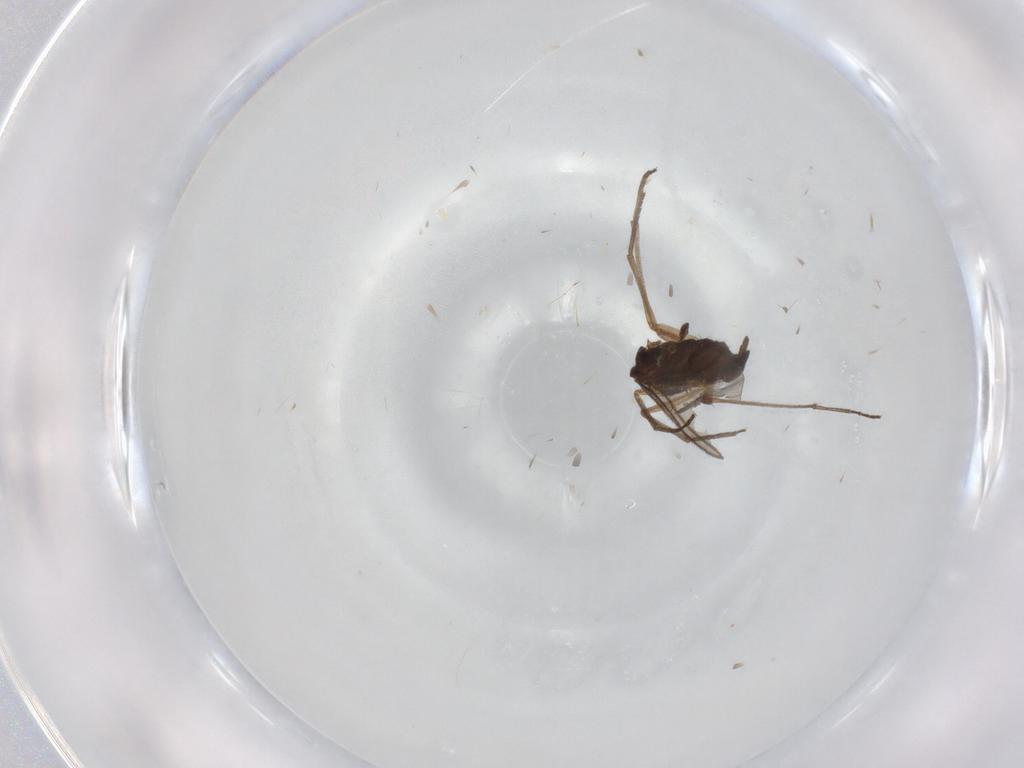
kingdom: Animalia
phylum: Arthropoda
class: Insecta
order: Diptera
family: Sciaridae
